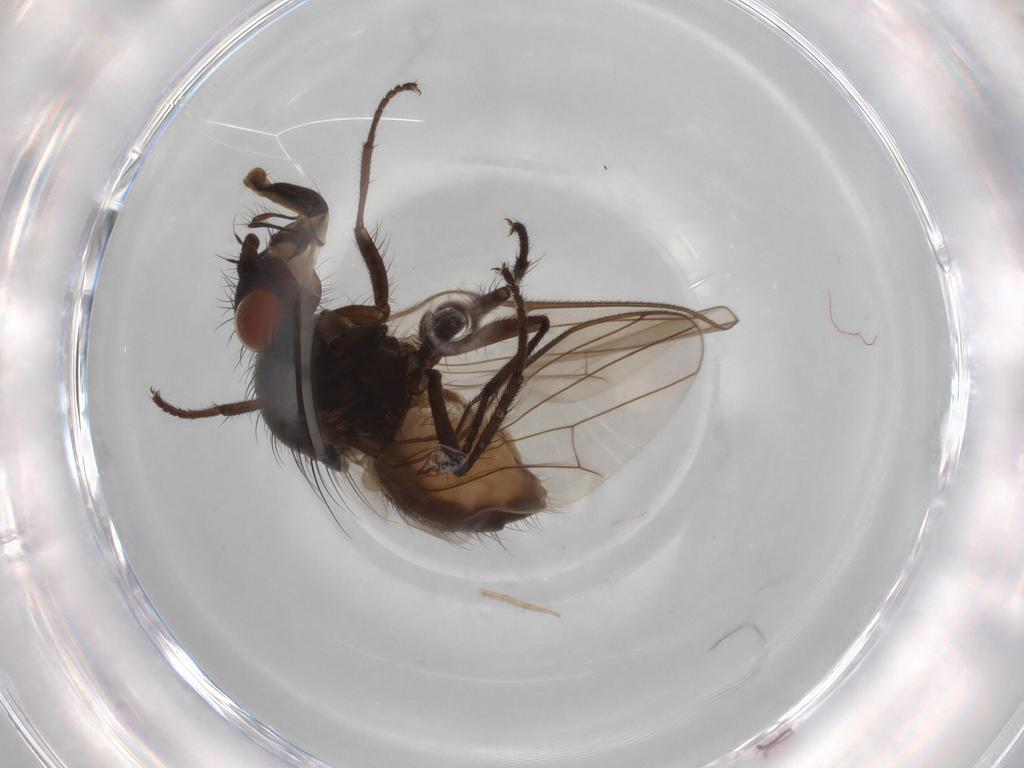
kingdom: Animalia
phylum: Arthropoda
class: Insecta
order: Diptera
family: Anthomyiidae
